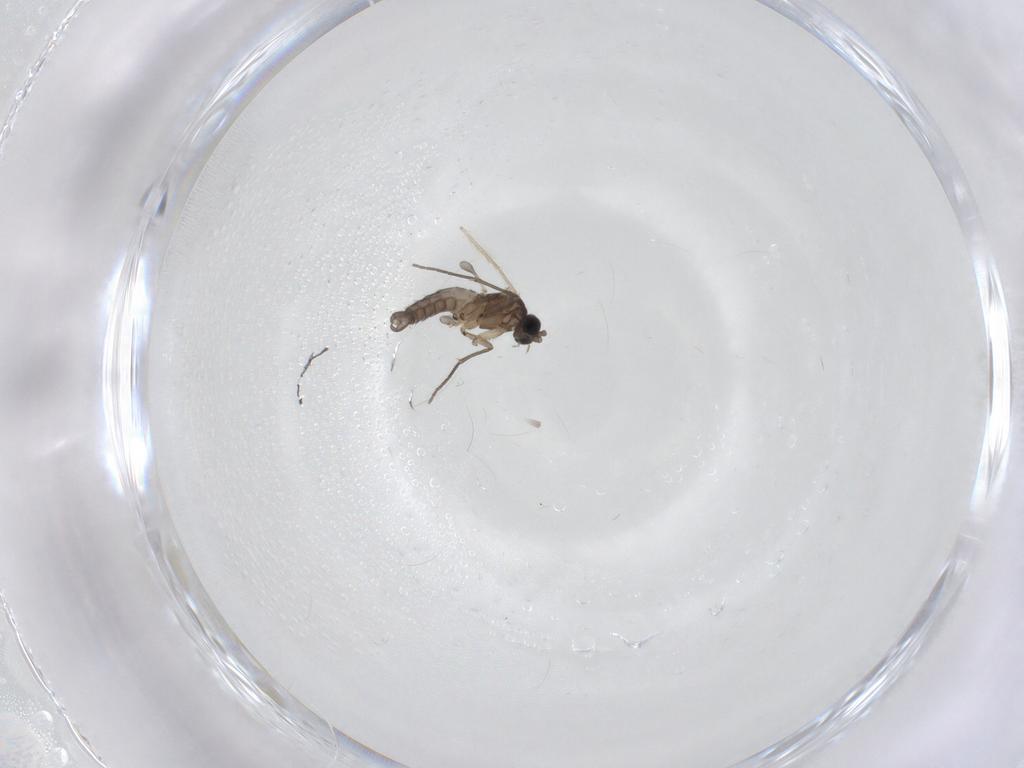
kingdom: Animalia
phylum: Arthropoda
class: Insecta
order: Diptera
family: Sciaridae
